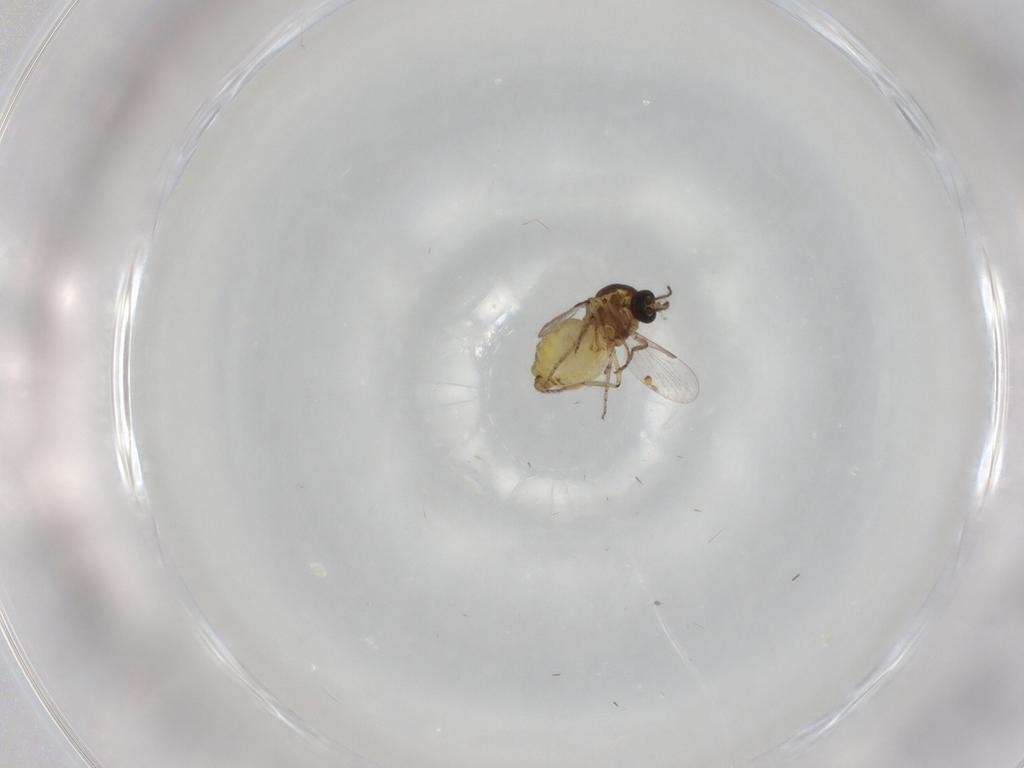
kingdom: Animalia
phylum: Arthropoda
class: Insecta
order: Diptera
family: Ceratopogonidae
